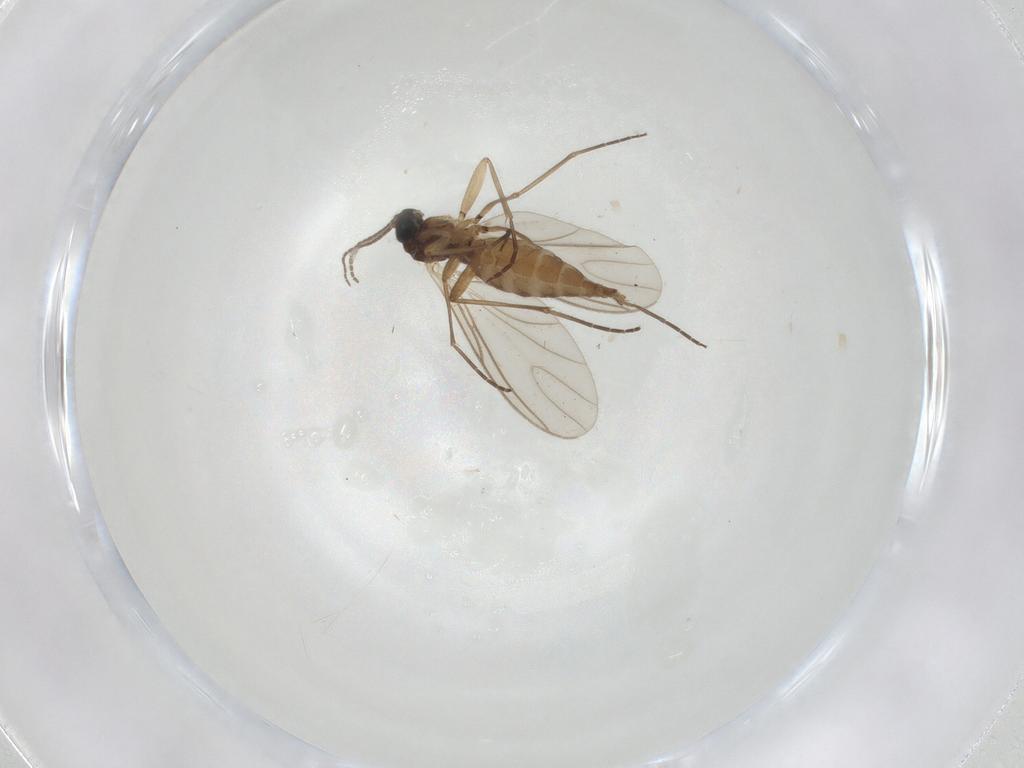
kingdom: Animalia
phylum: Arthropoda
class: Insecta
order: Diptera
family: Sciaridae
